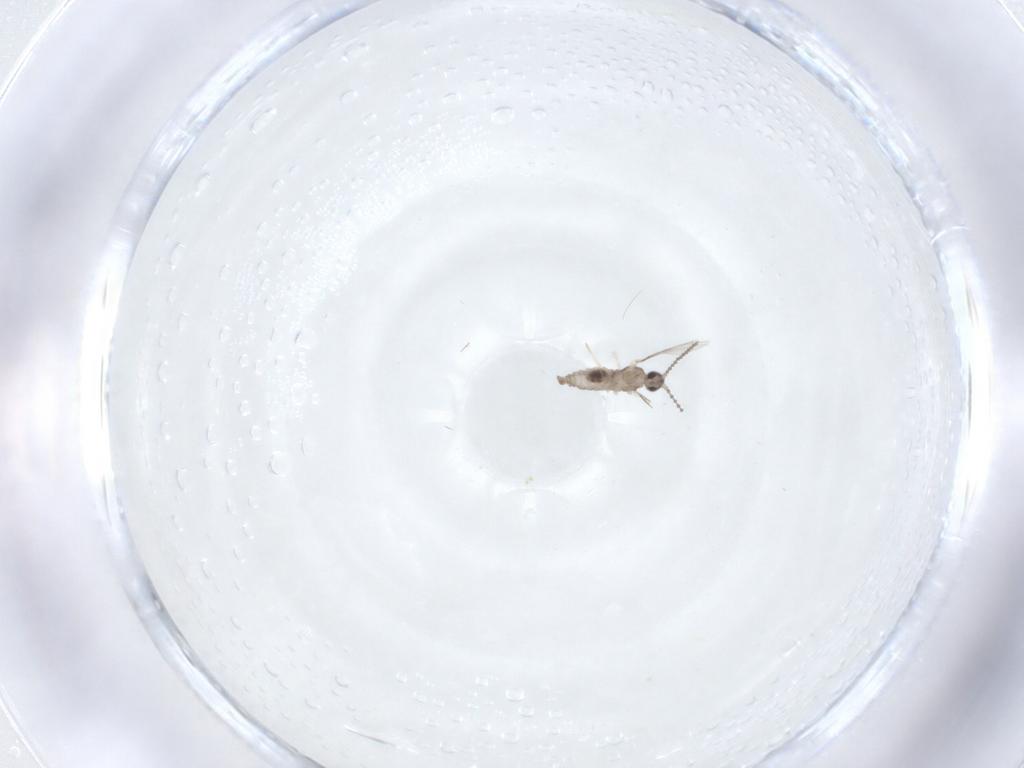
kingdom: Animalia
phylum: Arthropoda
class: Insecta
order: Diptera
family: Cecidomyiidae
